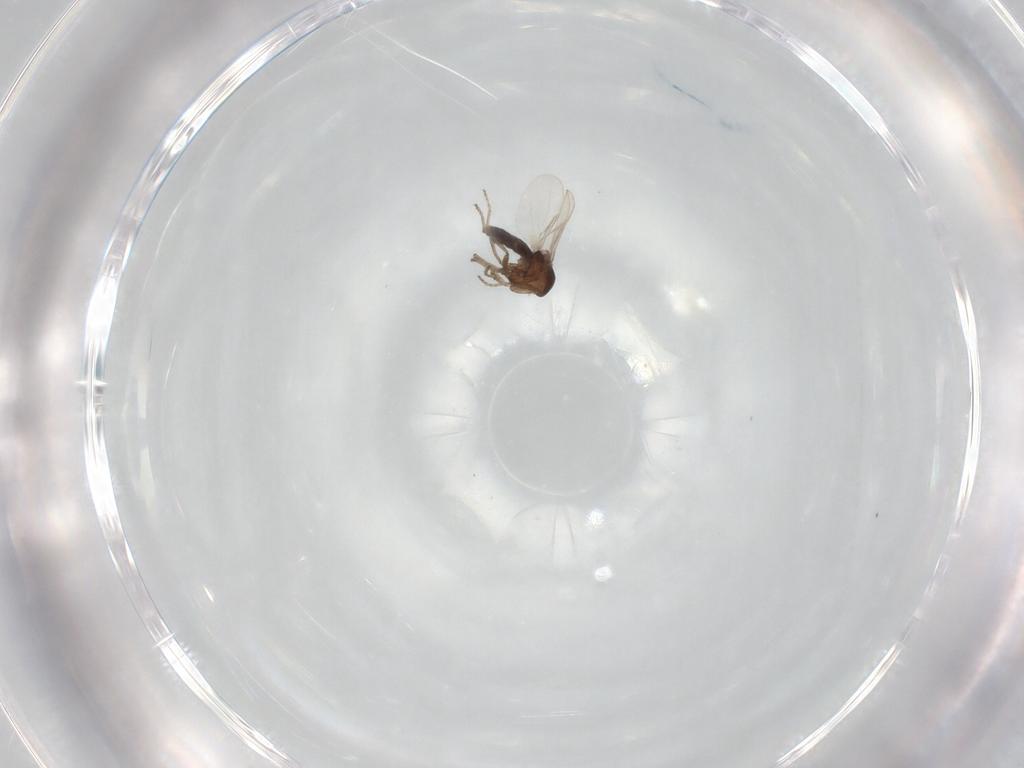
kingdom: Animalia
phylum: Arthropoda
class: Insecta
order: Diptera
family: Ceratopogonidae
